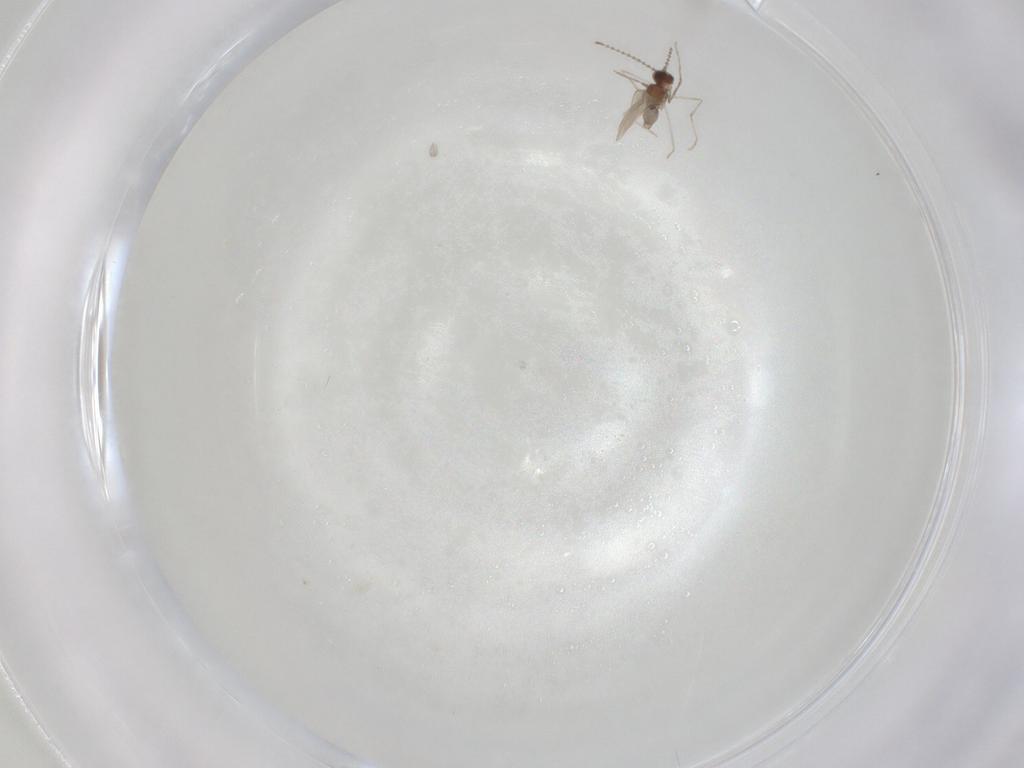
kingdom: Animalia
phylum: Arthropoda
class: Insecta
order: Diptera
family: Cecidomyiidae
